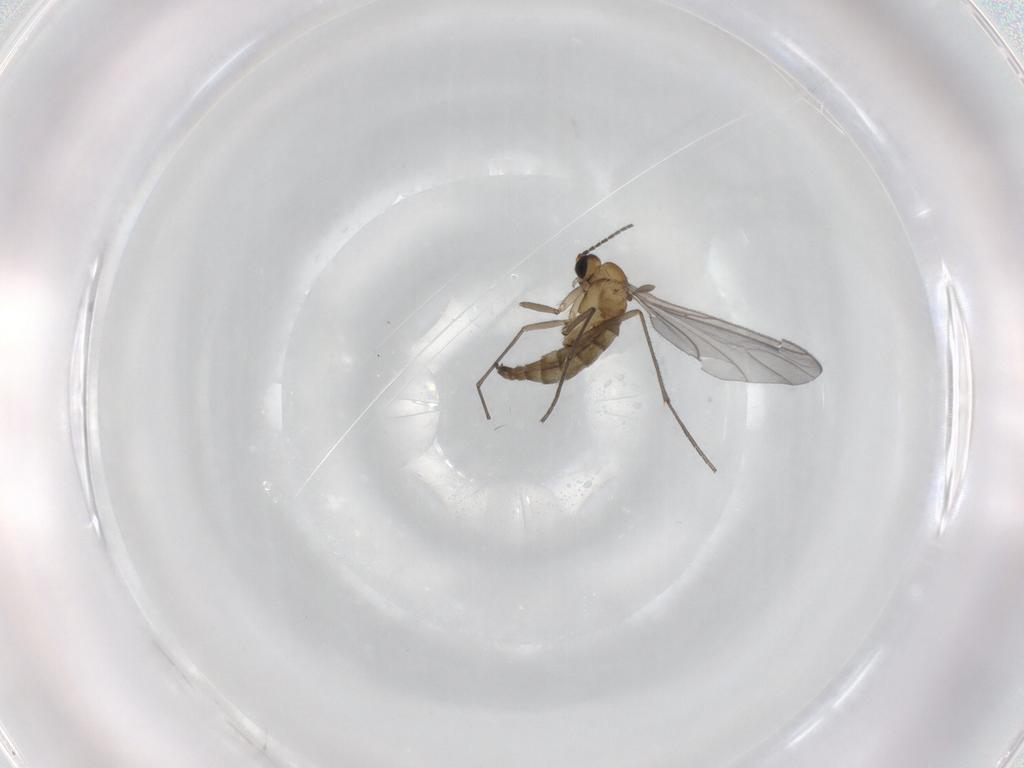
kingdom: Animalia
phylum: Arthropoda
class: Insecta
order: Diptera
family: Sciaridae
